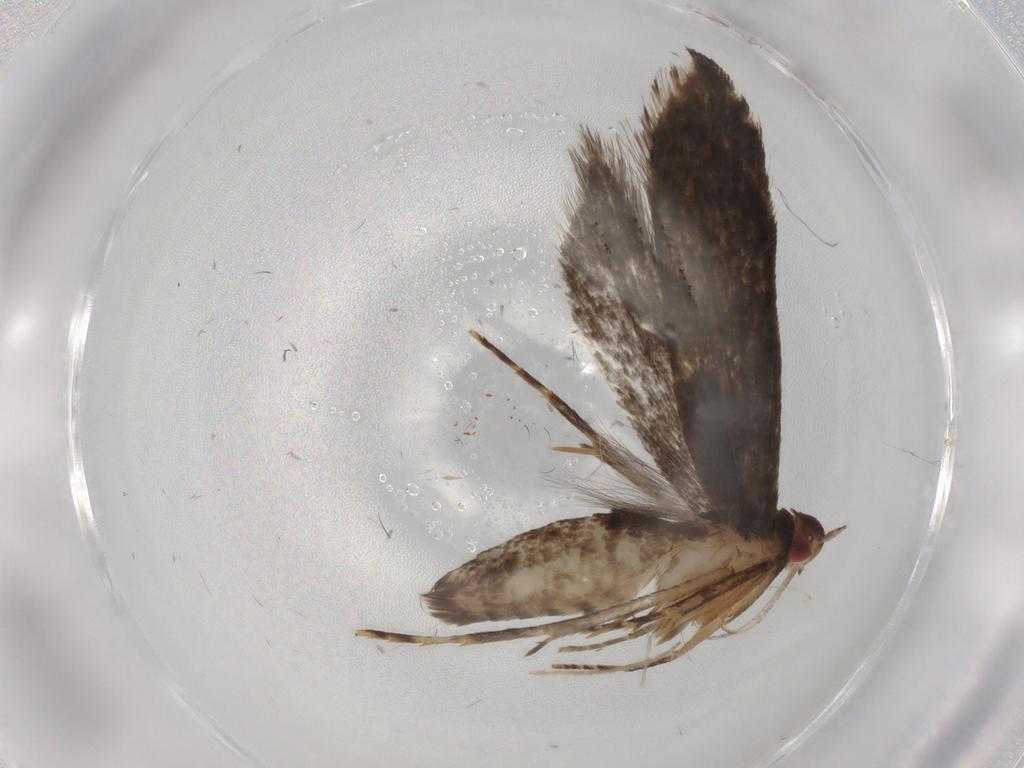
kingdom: Animalia
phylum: Arthropoda
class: Insecta
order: Lepidoptera
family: Gelechiidae
